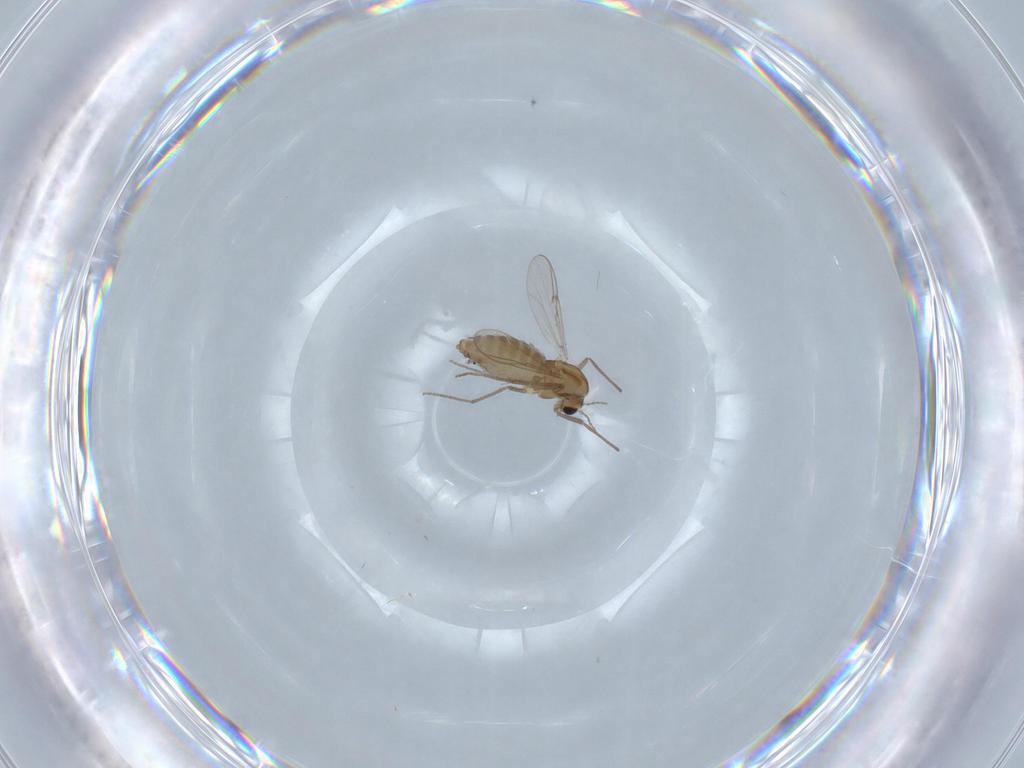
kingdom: Animalia
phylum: Arthropoda
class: Insecta
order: Diptera
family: Chironomidae
